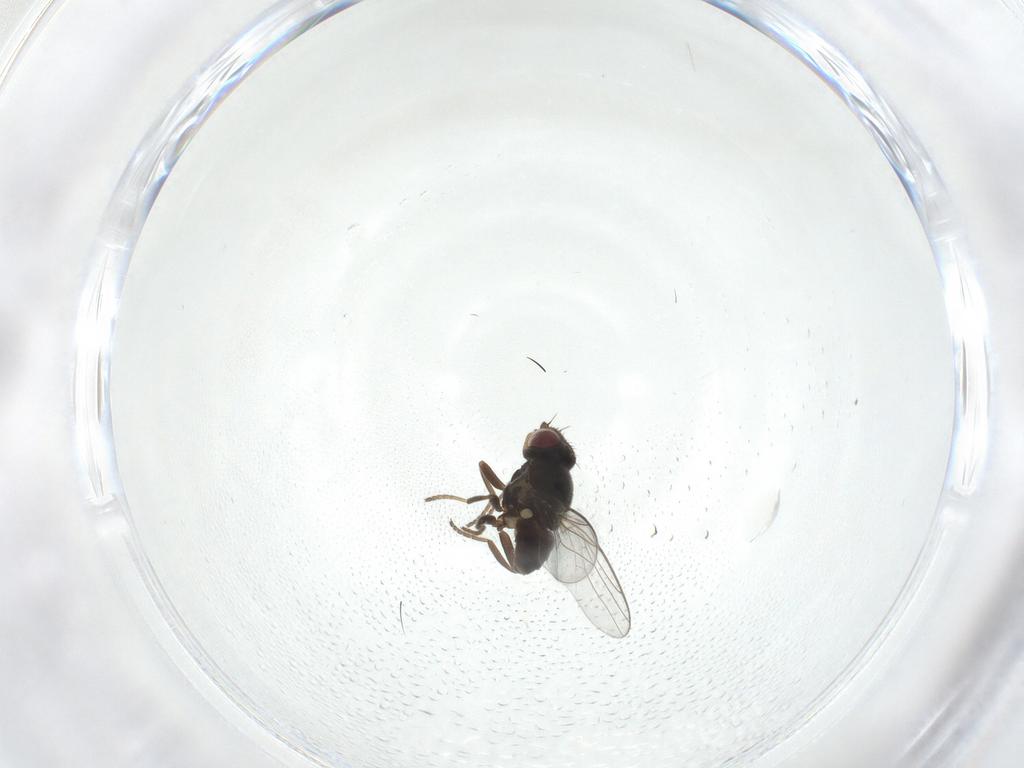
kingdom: Animalia
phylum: Arthropoda
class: Insecta
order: Diptera
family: Chloropidae
